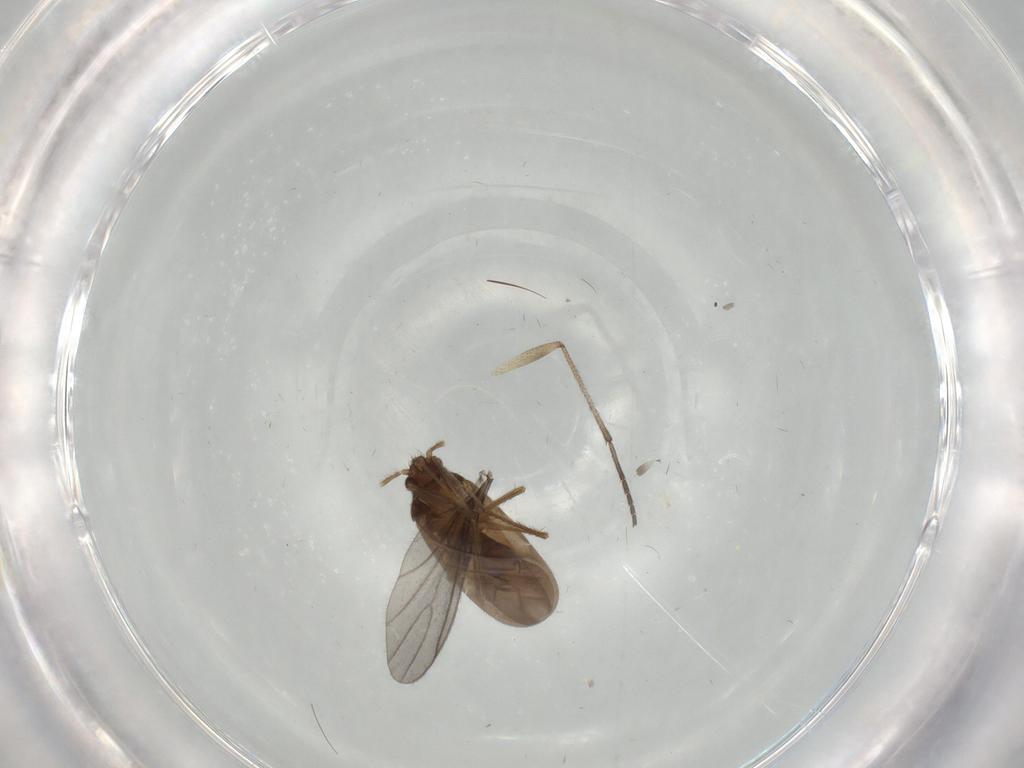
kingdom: Animalia
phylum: Arthropoda
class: Insecta
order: Hemiptera
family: Ceratocombidae
